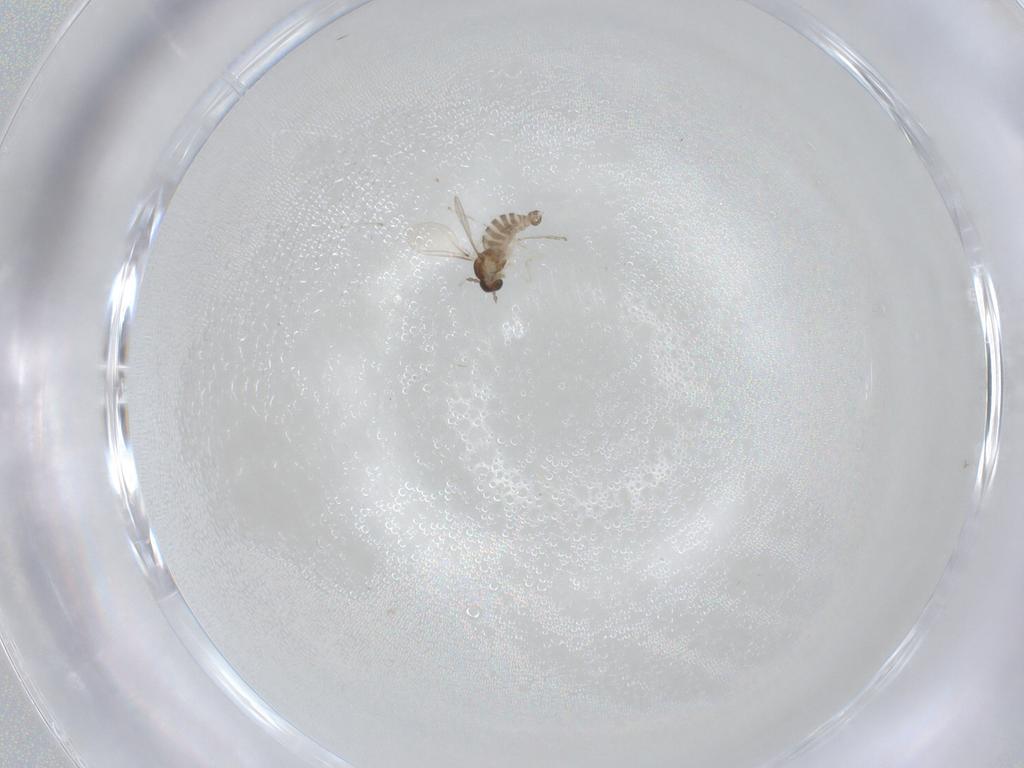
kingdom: Animalia
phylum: Arthropoda
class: Insecta
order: Diptera
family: Cecidomyiidae
